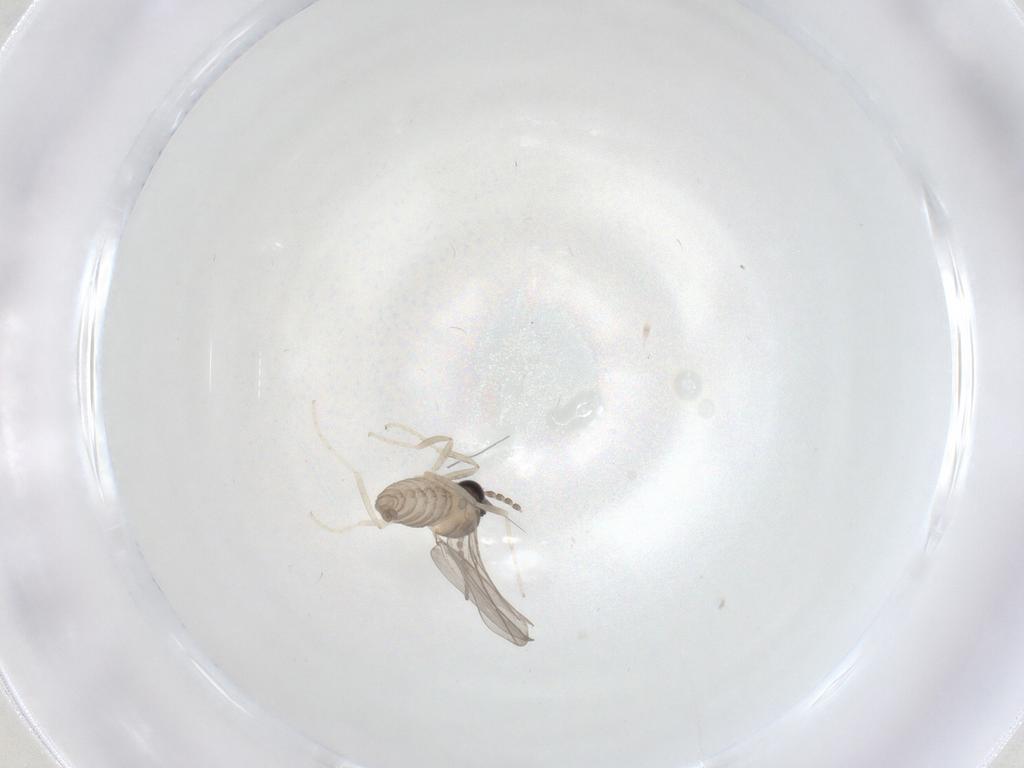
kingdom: Animalia
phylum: Arthropoda
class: Insecta
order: Diptera
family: Cecidomyiidae
